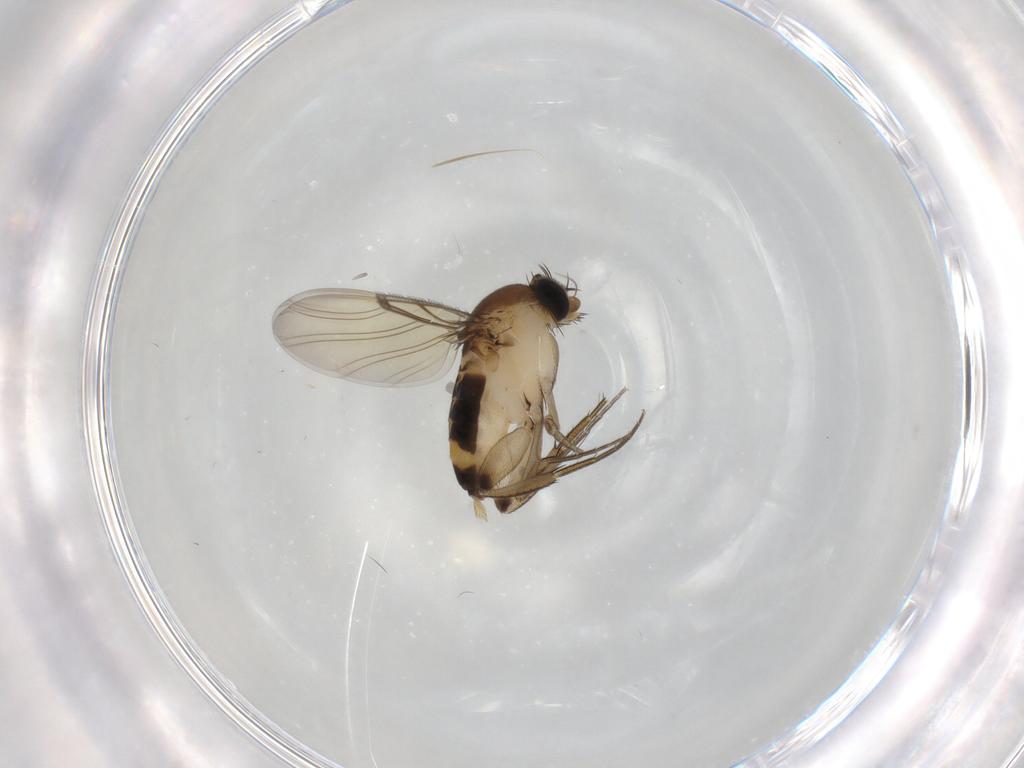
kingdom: Animalia
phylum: Arthropoda
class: Insecta
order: Diptera
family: Phoridae
